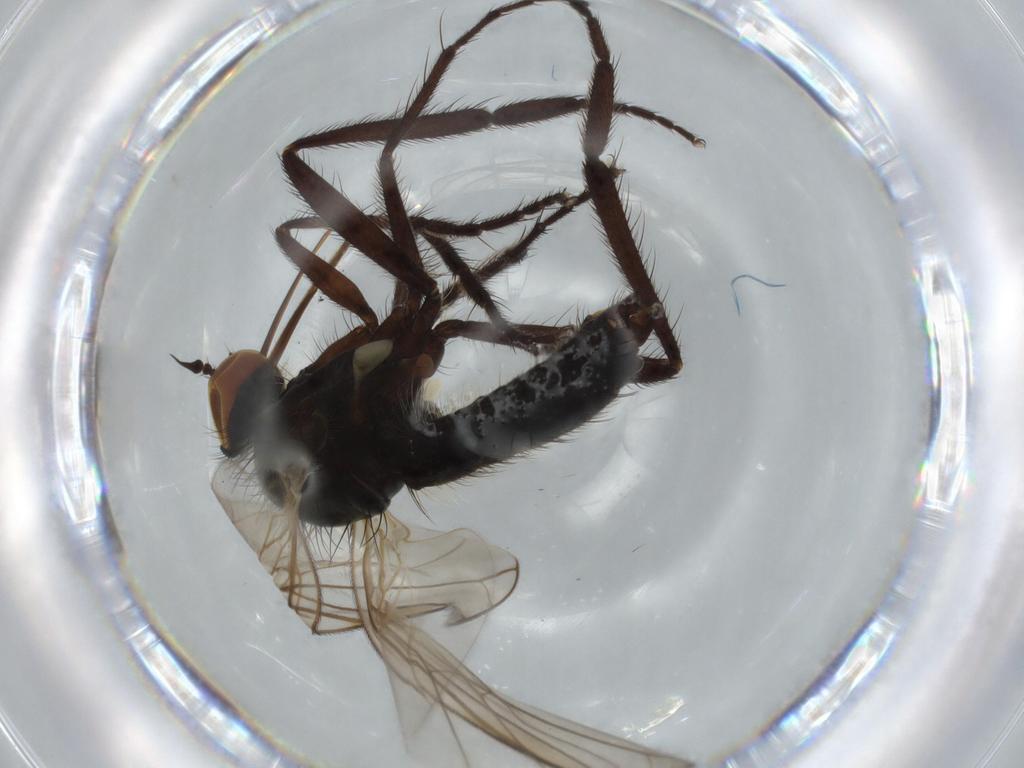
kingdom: Animalia
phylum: Arthropoda
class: Insecta
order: Diptera
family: Empididae
